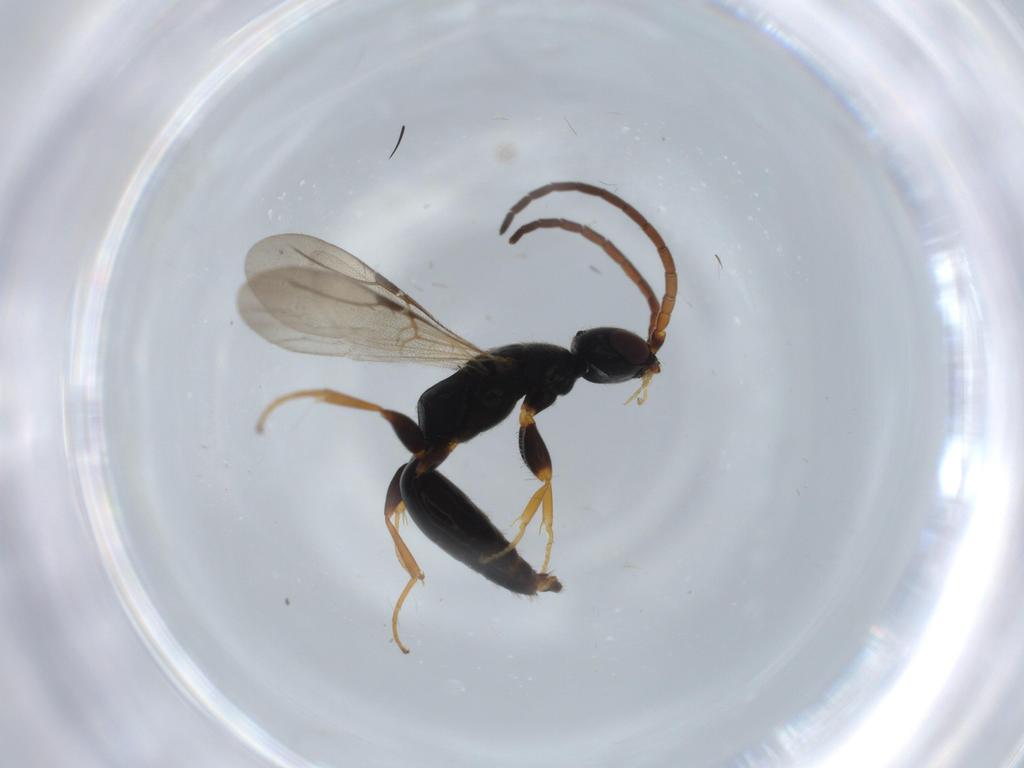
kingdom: Animalia
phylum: Arthropoda
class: Insecta
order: Hymenoptera
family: Bethylidae
